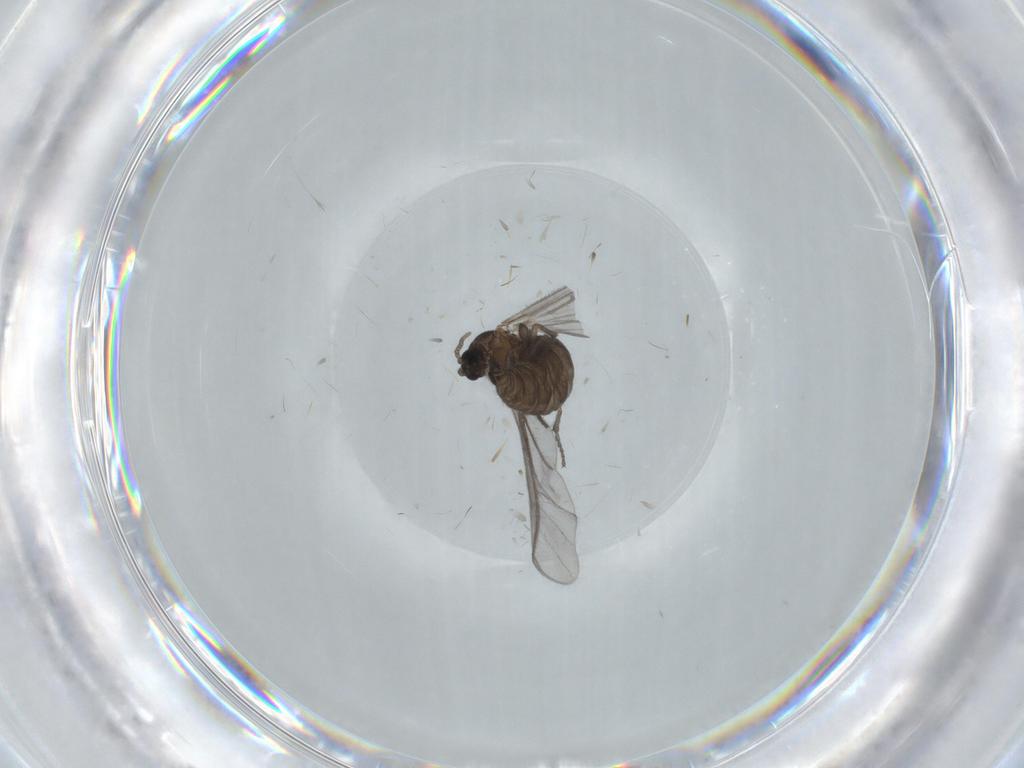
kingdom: Animalia
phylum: Arthropoda
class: Insecta
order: Diptera
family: Sciaridae
